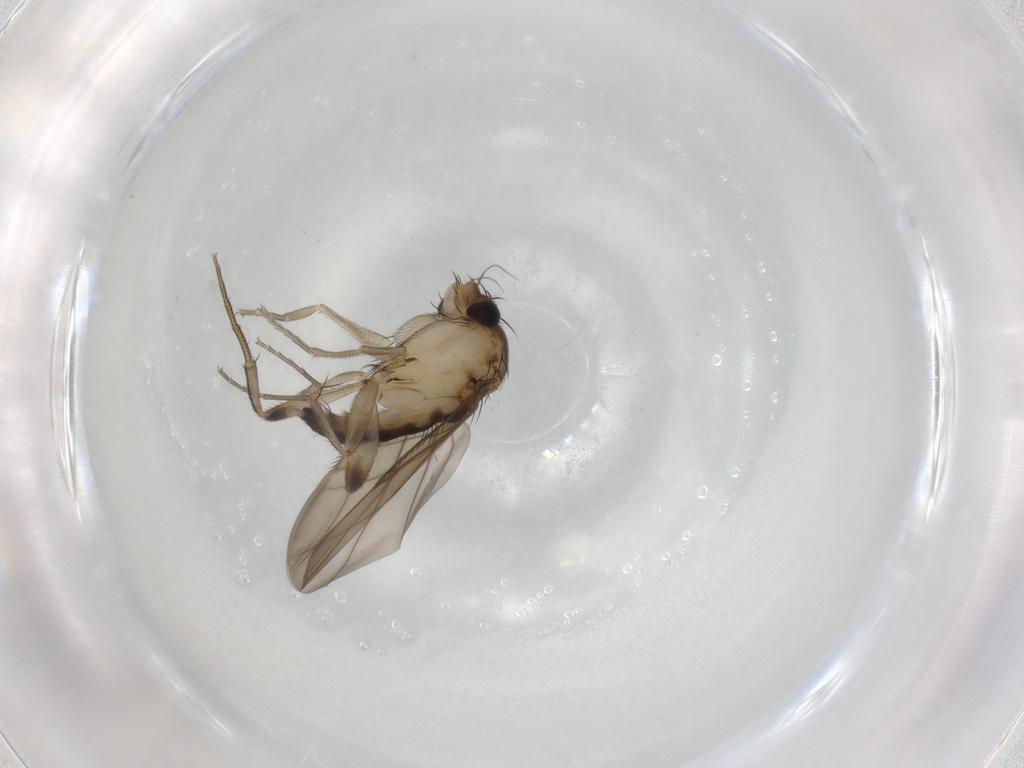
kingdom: Animalia
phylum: Arthropoda
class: Insecta
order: Diptera
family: Phoridae
